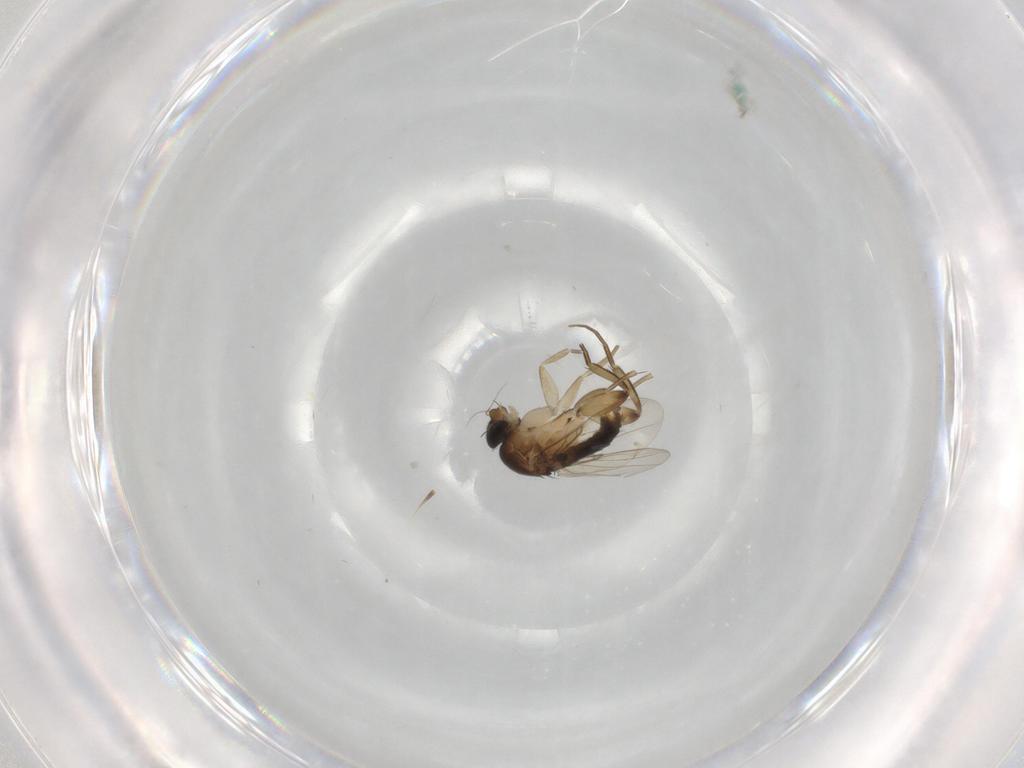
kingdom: Animalia
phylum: Arthropoda
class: Insecta
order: Diptera
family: Phoridae
